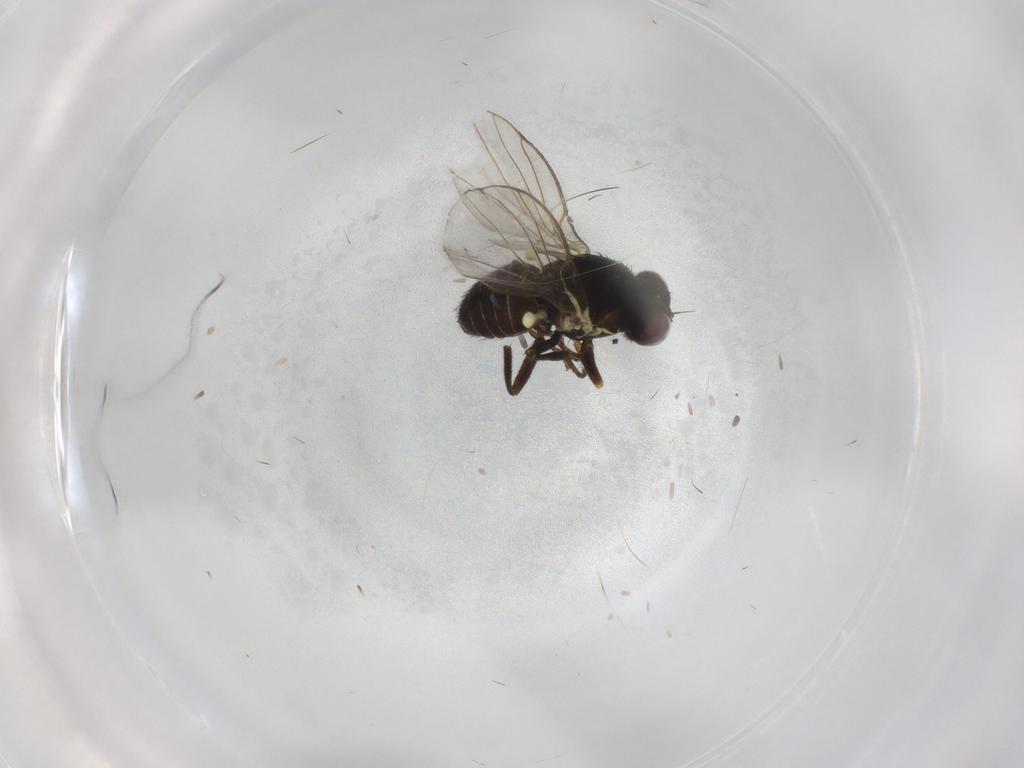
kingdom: Animalia
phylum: Arthropoda
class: Insecta
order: Diptera
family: Agromyzidae
